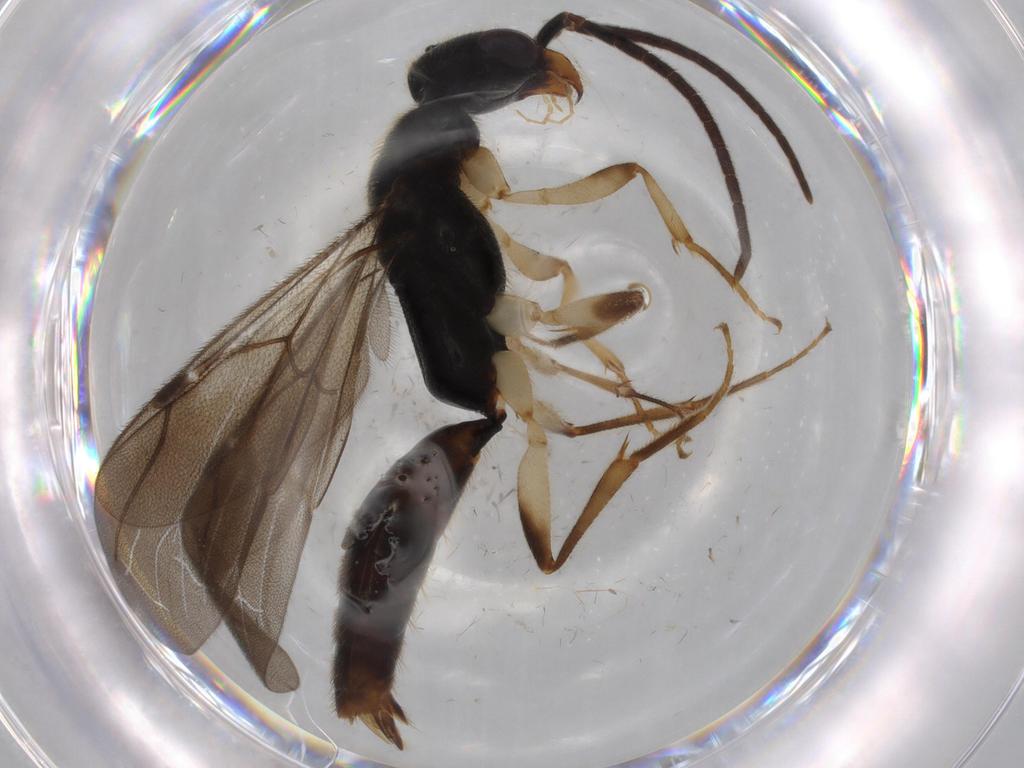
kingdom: Animalia
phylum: Arthropoda
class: Insecta
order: Hymenoptera
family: Bethylidae
